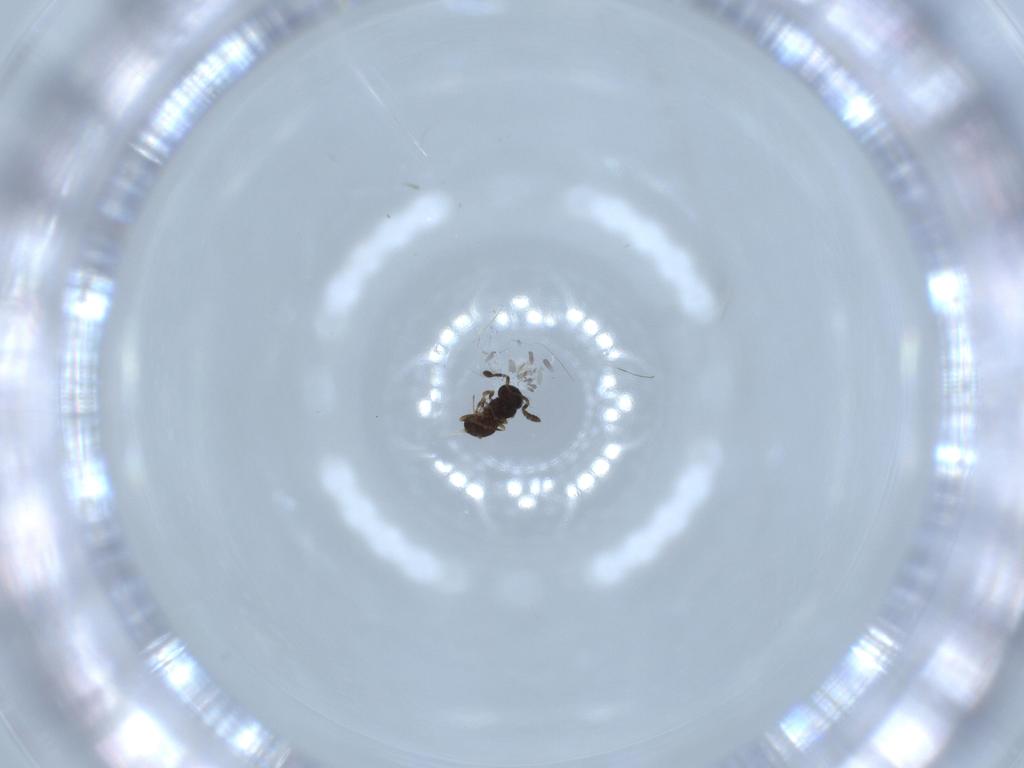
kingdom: Animalia
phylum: Arthropoda
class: Insecta
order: Hymenoptera
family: Scelionidae
